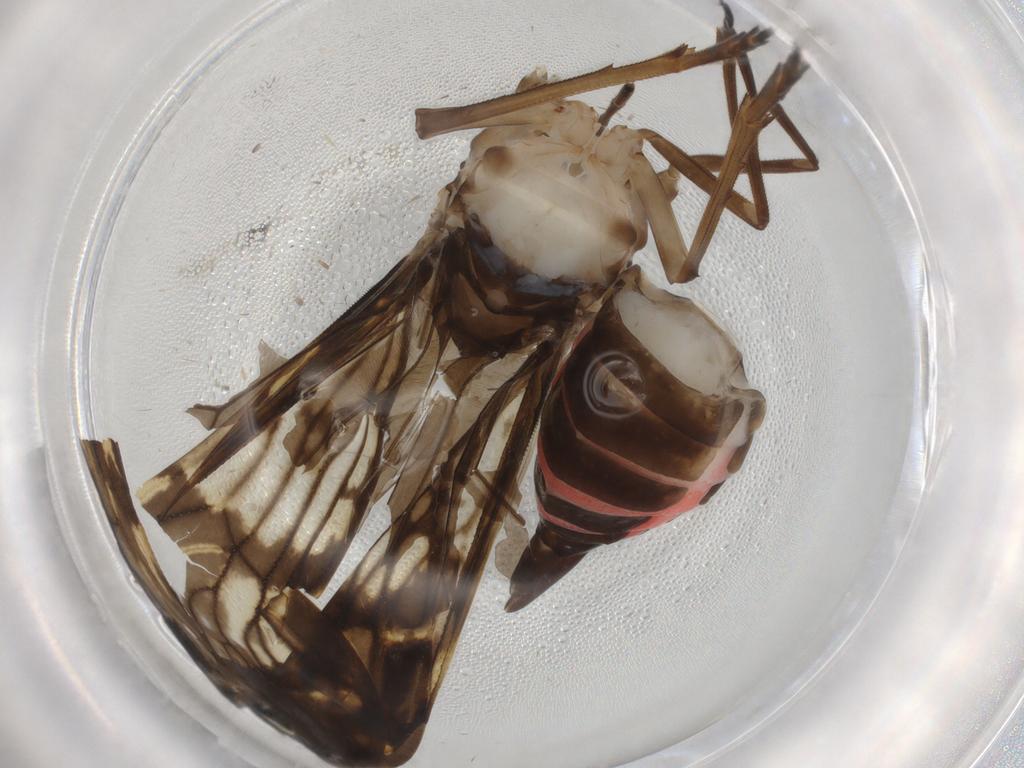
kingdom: Animalia
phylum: Arthropoda
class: Insecta
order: Hemiptera
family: Cixiidae
